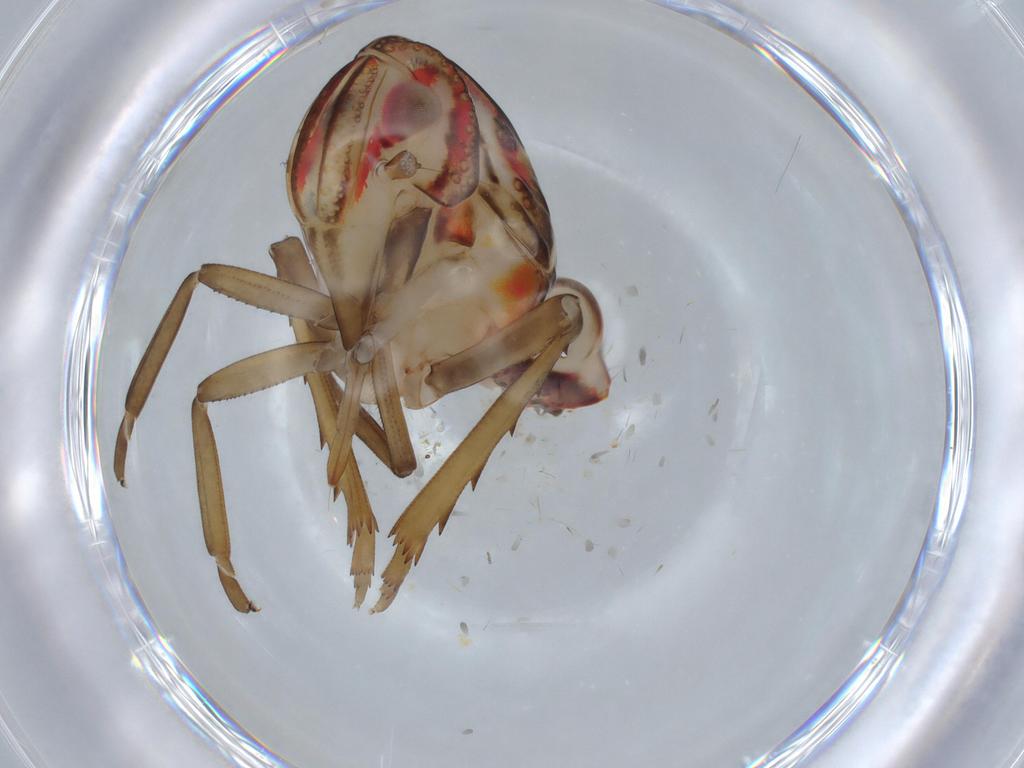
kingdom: Animalia
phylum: Arthropoda
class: Insecta
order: Hemiptera
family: Nogodinidae
